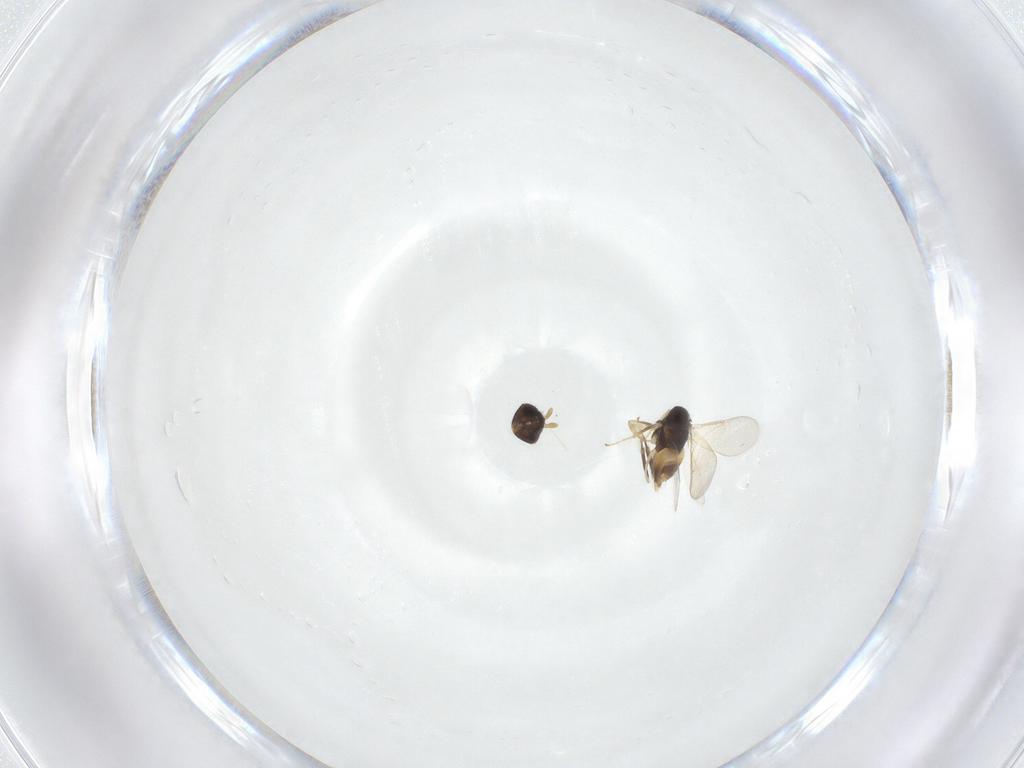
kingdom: Animalia
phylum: Arthropoda
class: Insecta
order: Hymenoptera
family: Aphelinidae
